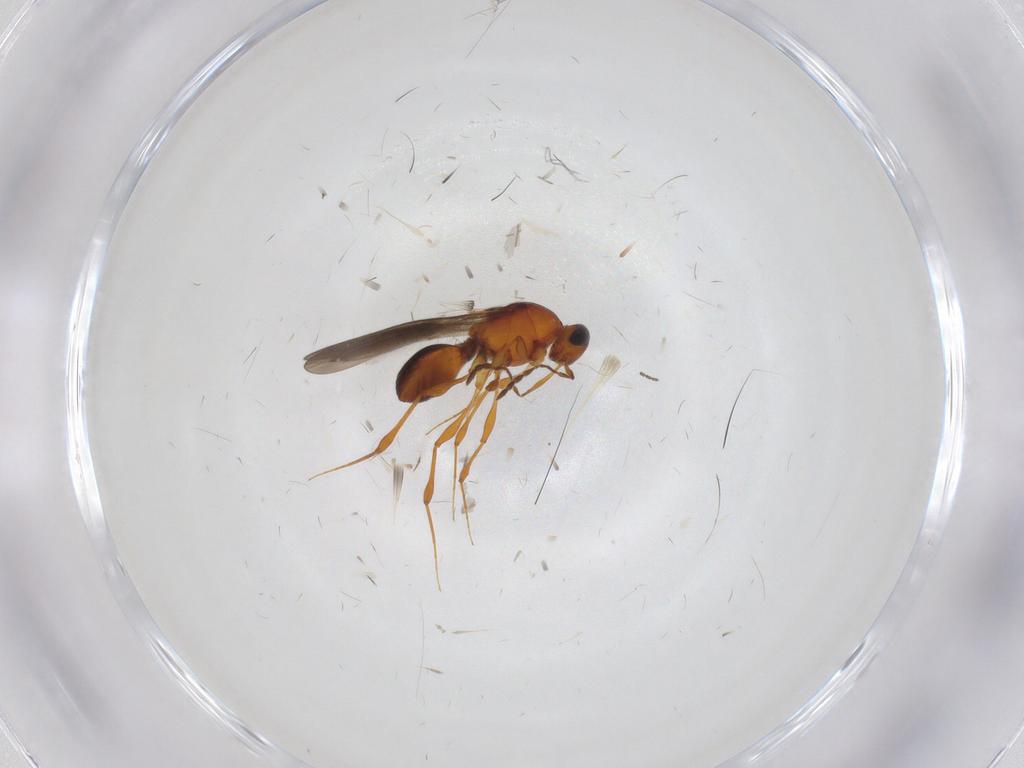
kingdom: Animalia
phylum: Arthropoda
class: Insecta
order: Hymenoptera
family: Platygastridae
